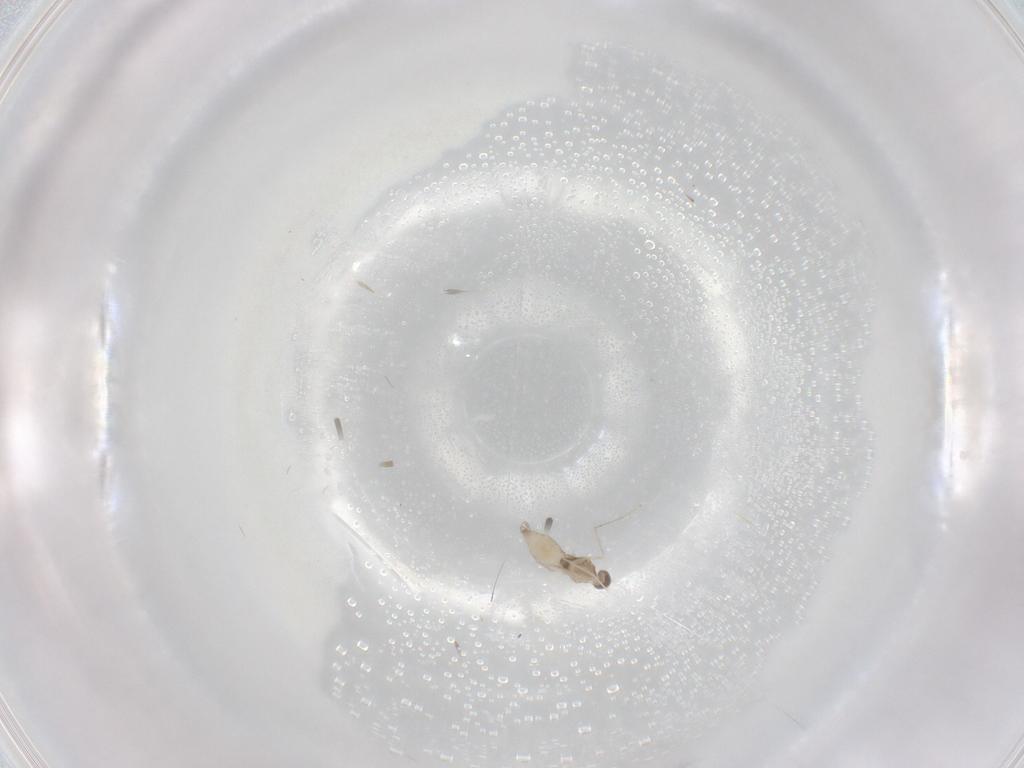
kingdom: Animalia
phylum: Arthropoda
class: Insecta
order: Diptera
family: Cecidomyiidae
